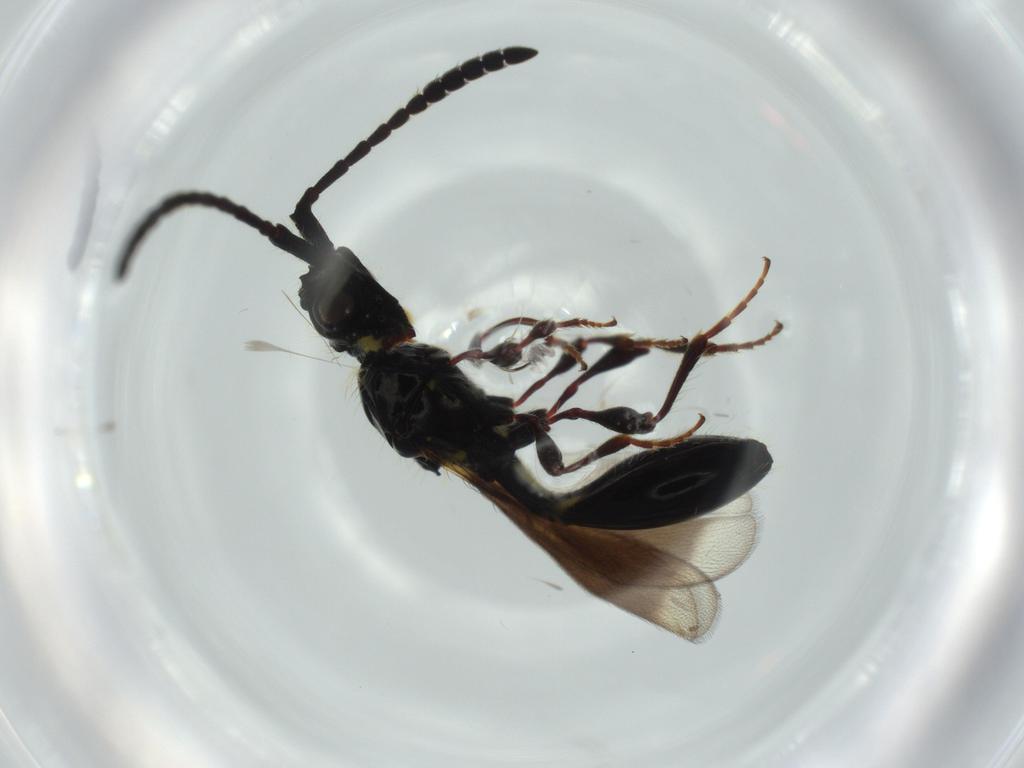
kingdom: Animalia
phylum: Arthropoda
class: Insecta
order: Hymenoptera
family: Diapriidae
